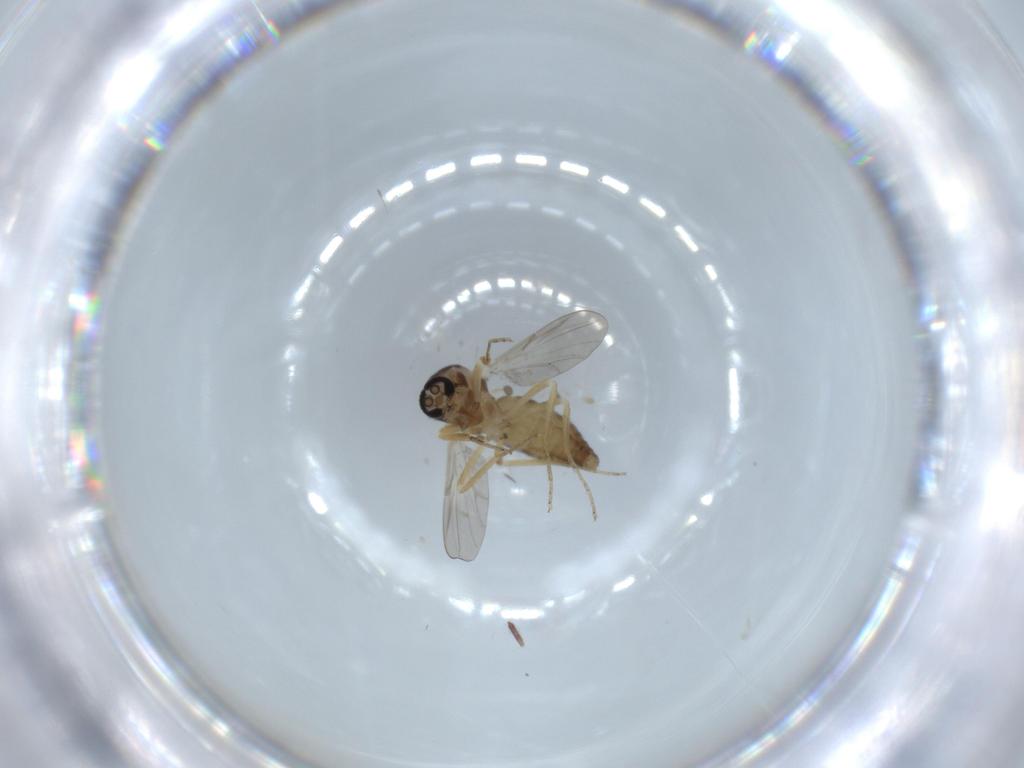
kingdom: Animalia
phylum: Arthropoda
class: Insecta
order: Diptera
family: Ceratopogonidae
